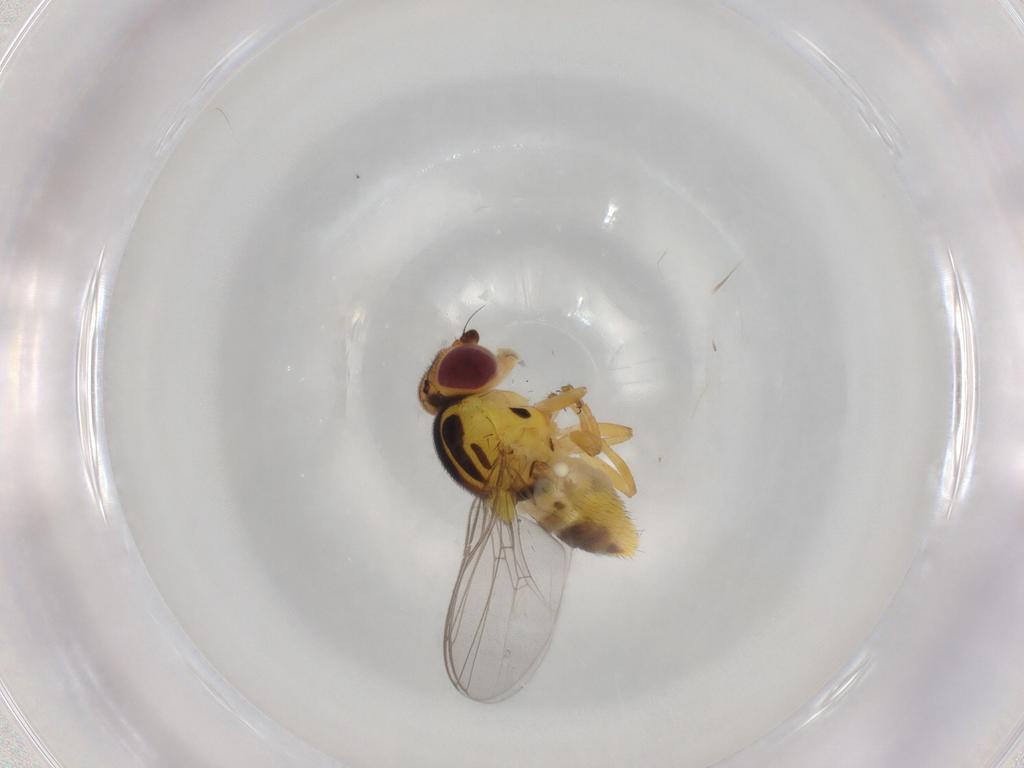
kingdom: Animalia
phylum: Arthropoda
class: Insecta
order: Diptera
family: Chloropidae
